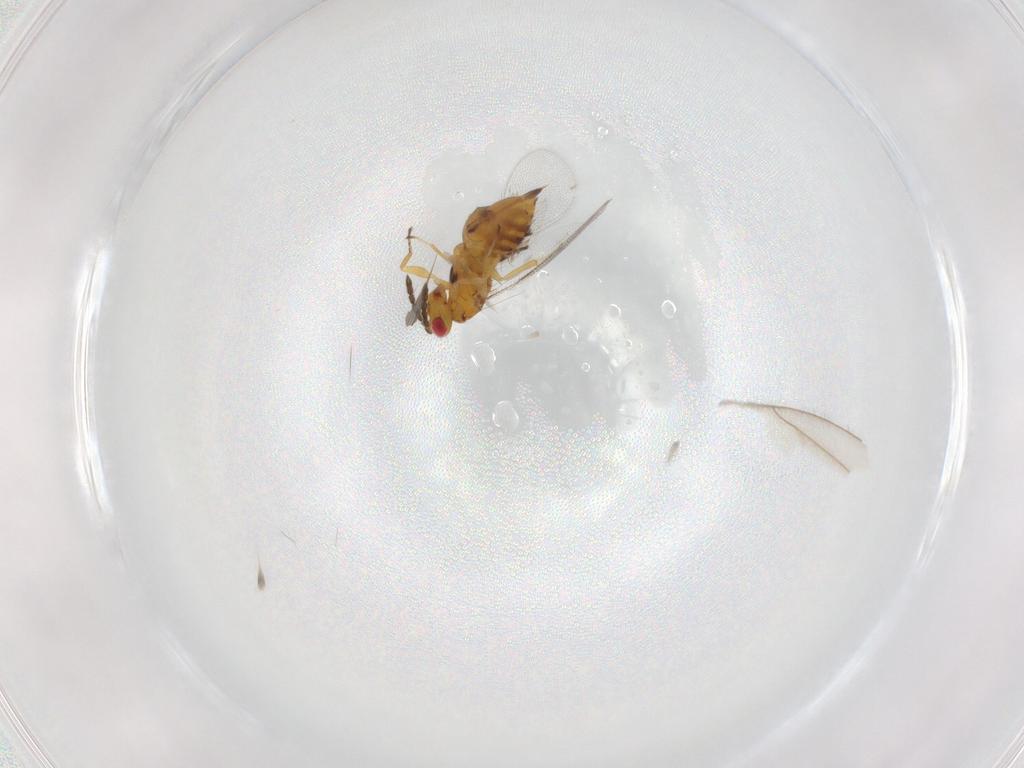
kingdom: Animalia
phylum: Arthropoda
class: Insecta
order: Hymenoptera
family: Eulophidae
